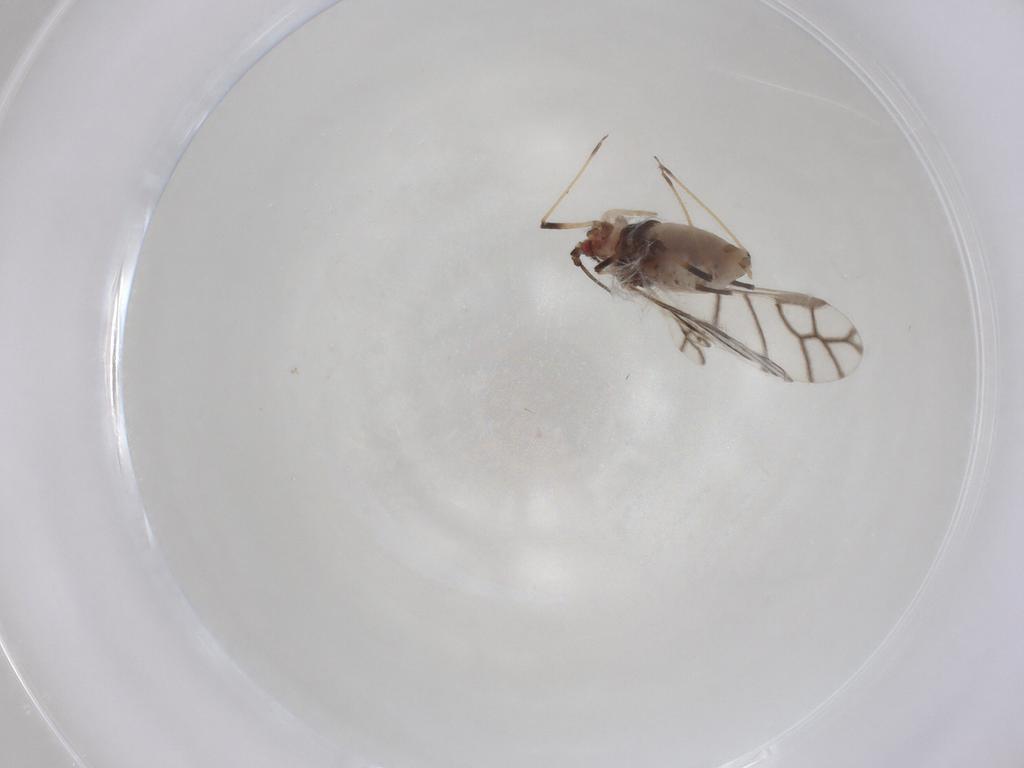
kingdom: Animalia
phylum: Arthropoda
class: Insecta
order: Hemiptera
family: Aphididae
